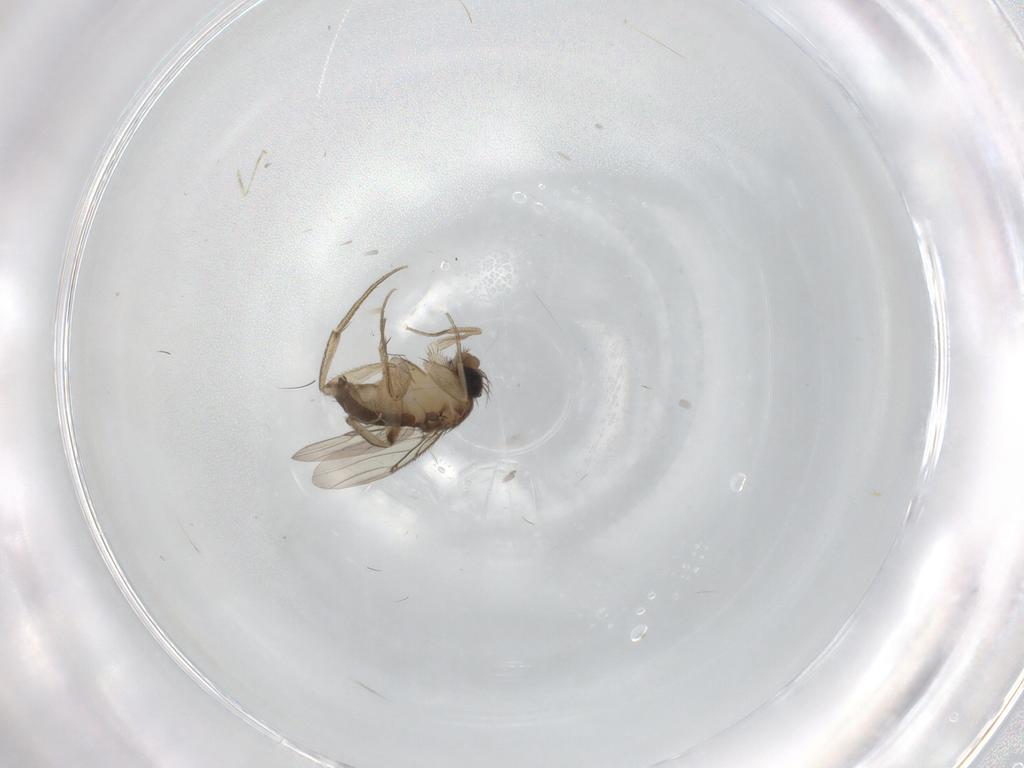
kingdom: Animalia
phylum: Arthropoda
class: Insecta
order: Diptera
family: Phoridae
